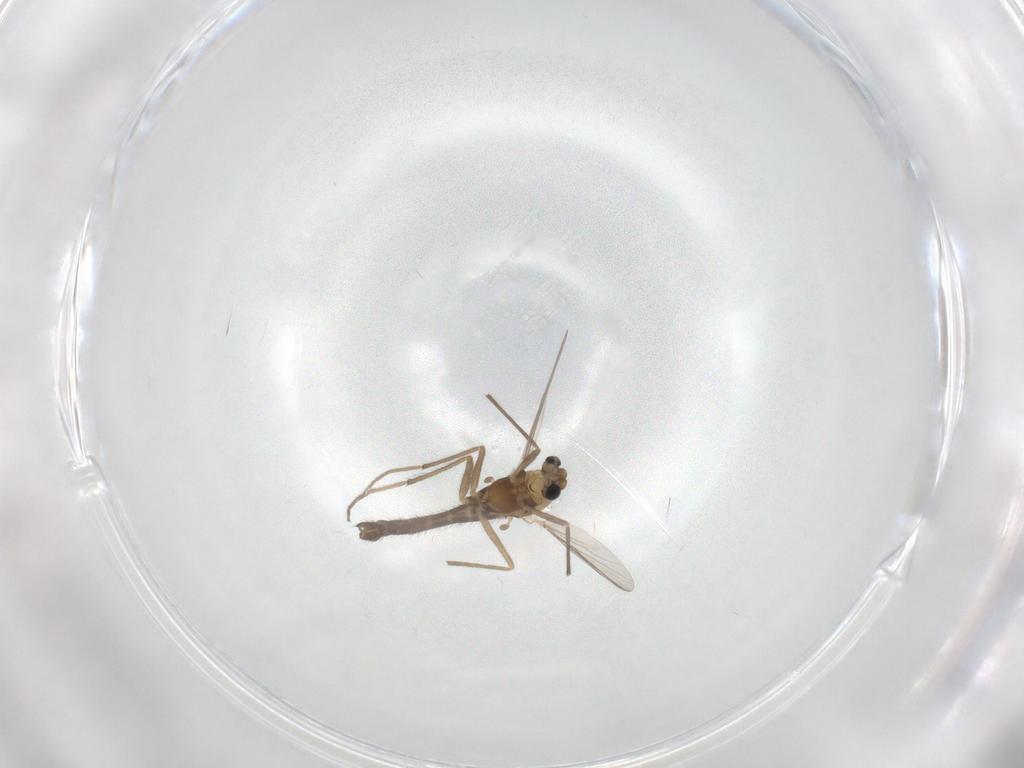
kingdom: Animalia
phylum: Arthropoda
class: Insecta
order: Diptera
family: Chironomidae
